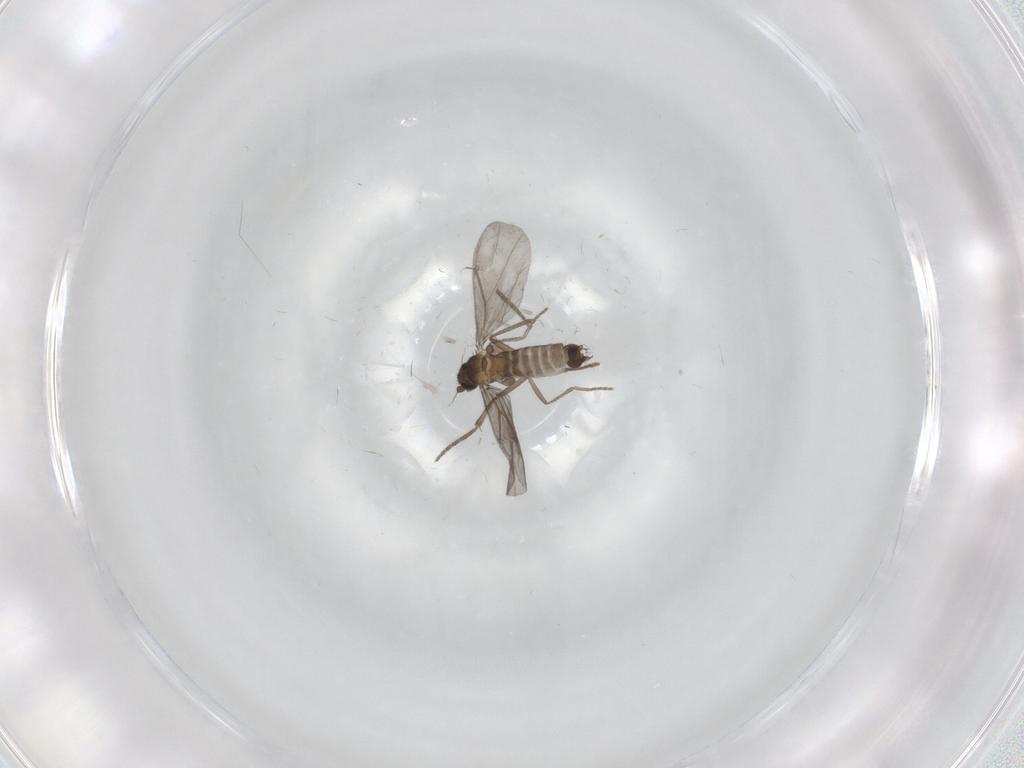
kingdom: Animalia
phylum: Arthropoda
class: Insecta
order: Diptera
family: Phoridae
